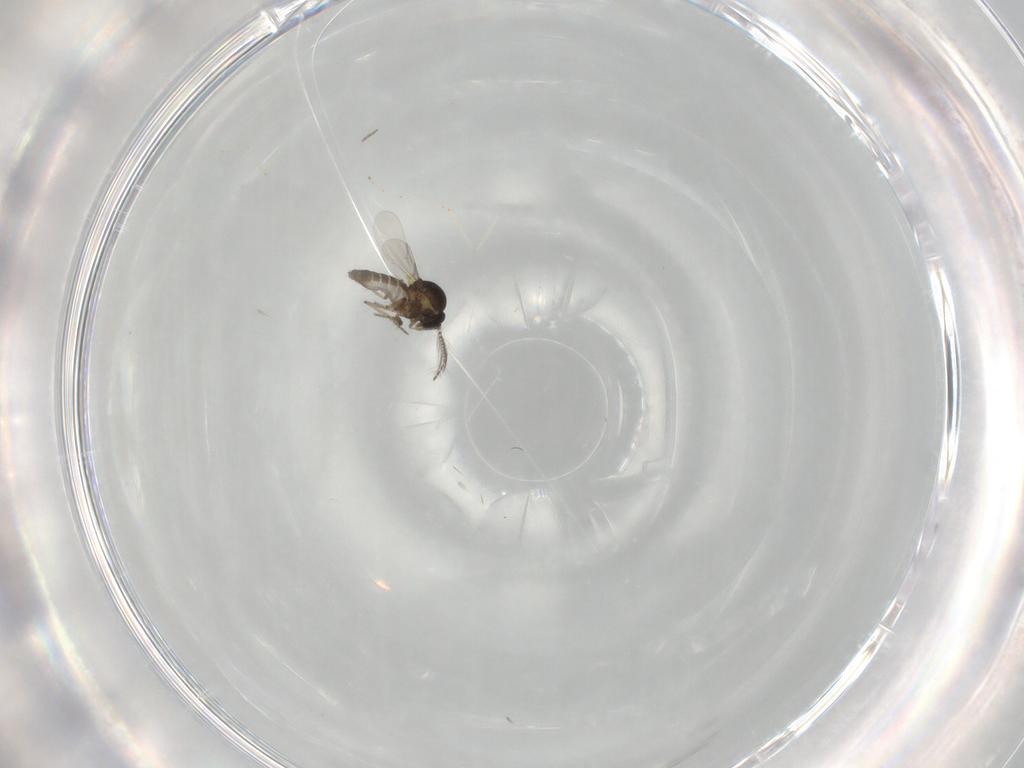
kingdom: Animalia
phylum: Arthropoda
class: Insecta
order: Diptera
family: Ceratopogonidae
